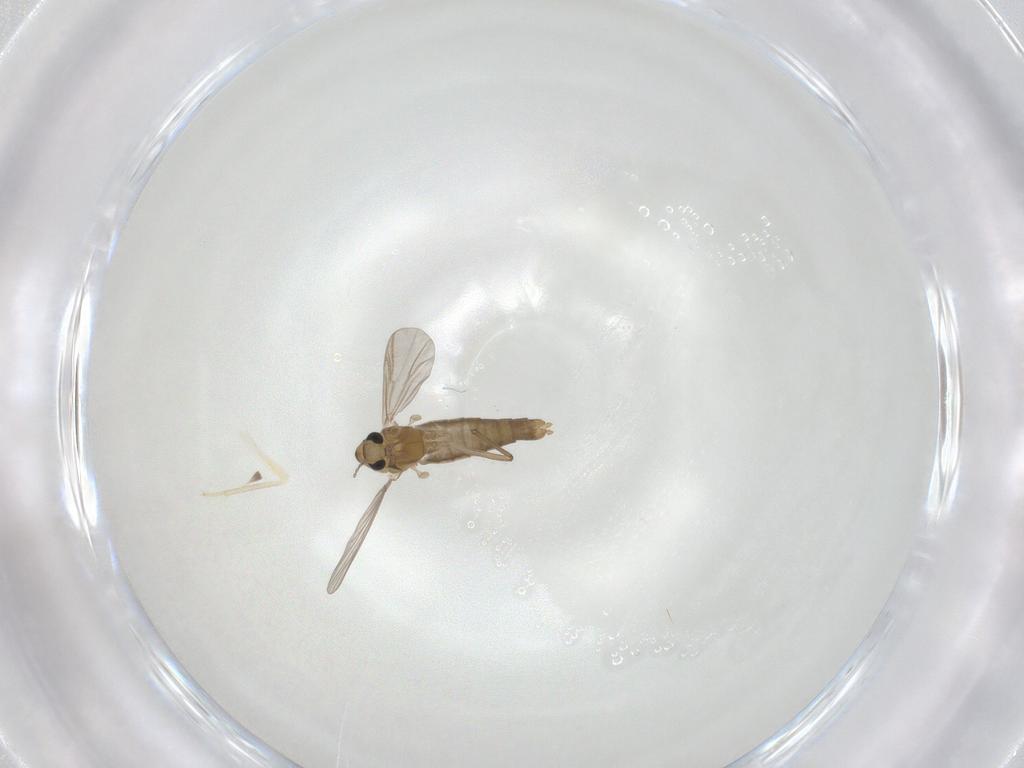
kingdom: Animalia
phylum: Arthropoda
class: Insecta
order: Diptera
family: Chironomidae
